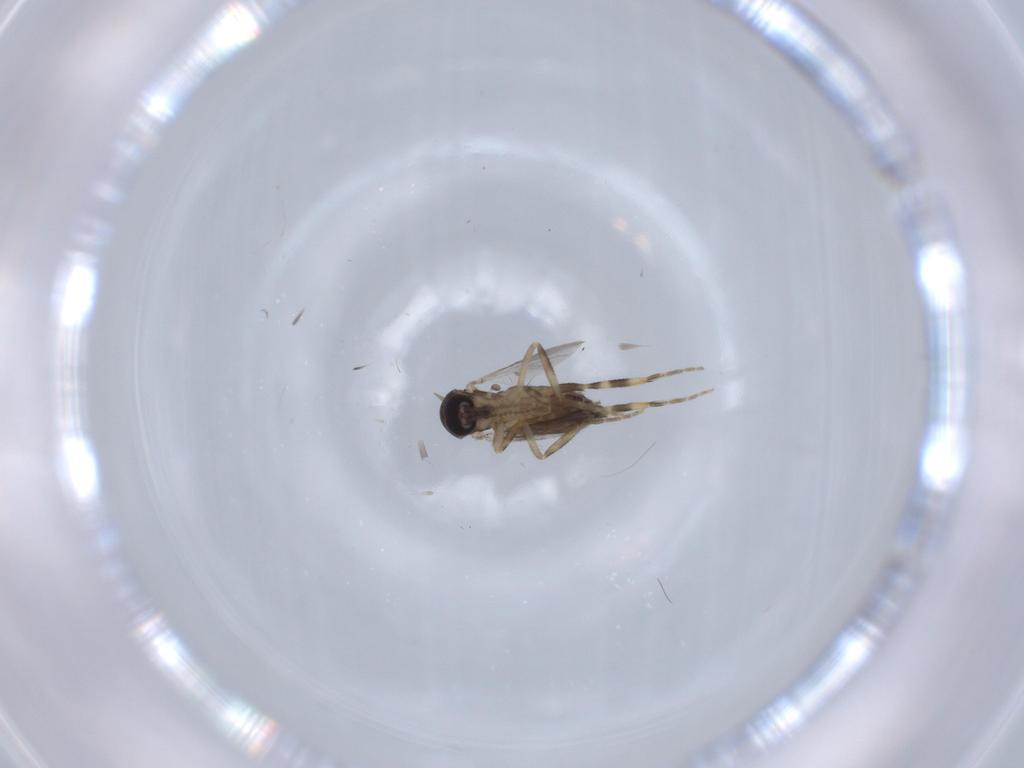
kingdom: Animalia
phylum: Arthropoda
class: Insecta
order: Diptera
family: Ceratopogonidae
